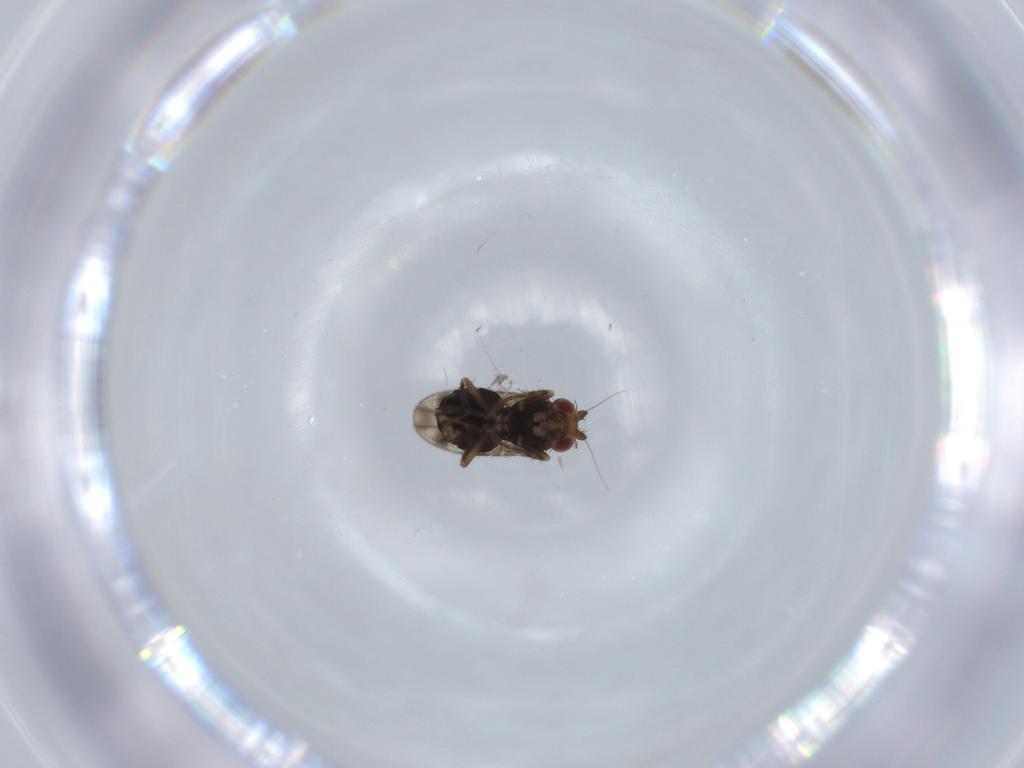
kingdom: Animalia
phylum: Arthropoda
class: Insecta
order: Diptera
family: Sphaeroceridae
